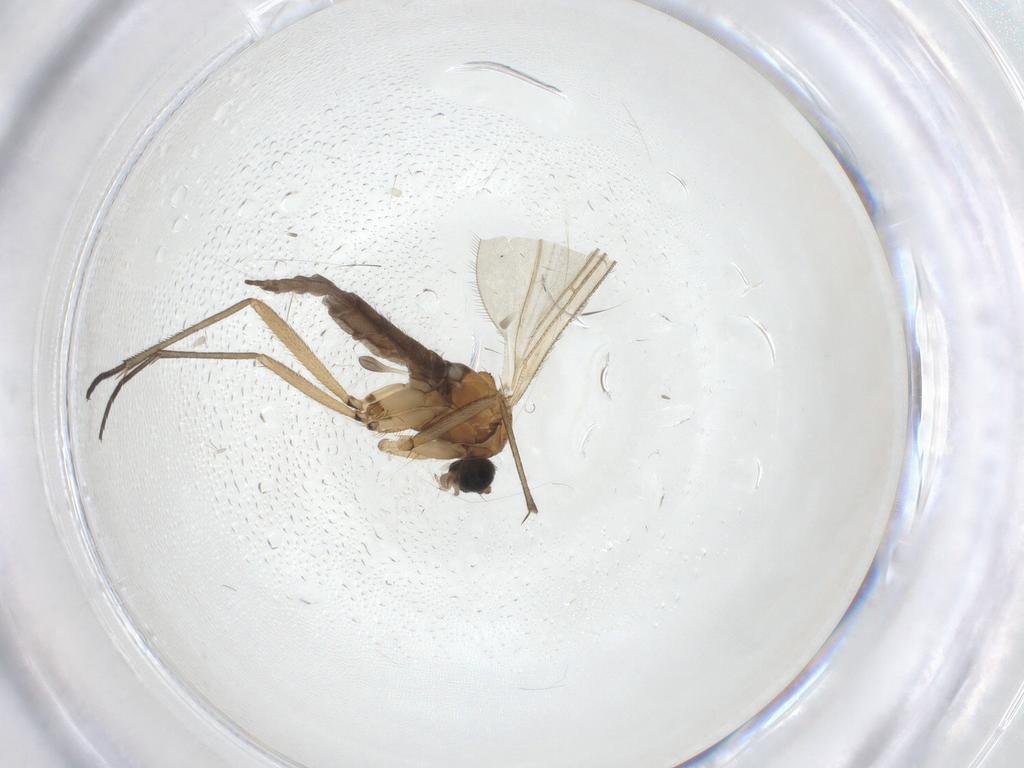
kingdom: Animalia
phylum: Arthropoda
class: Insecta
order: Diptera
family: Sciaridae
